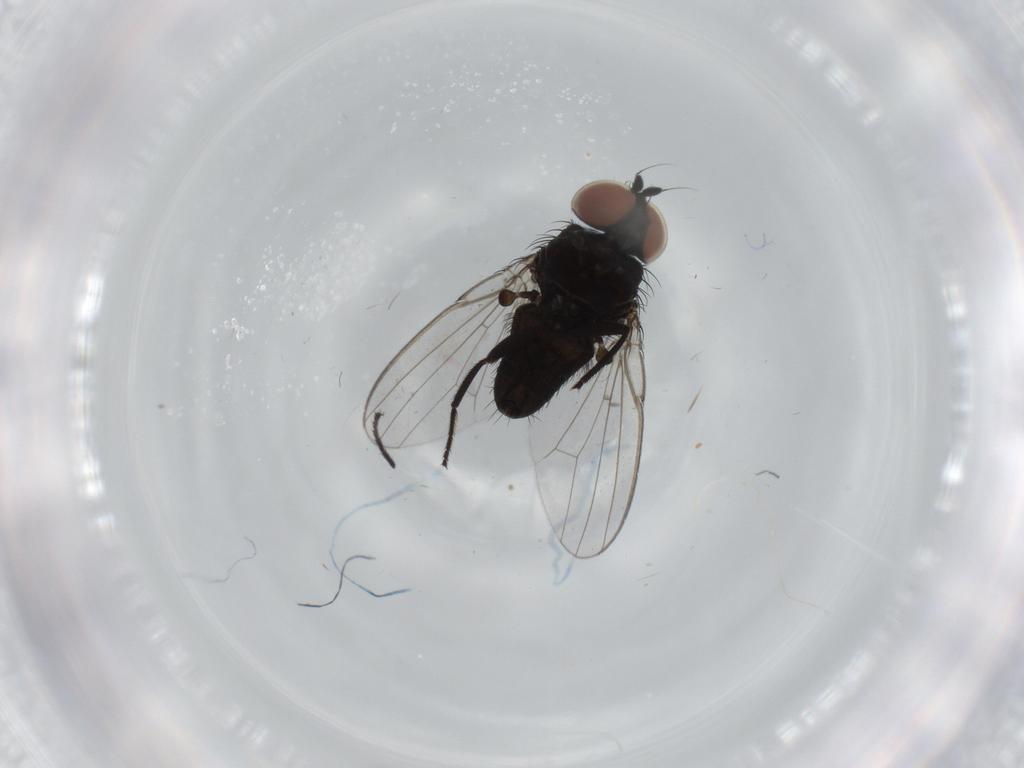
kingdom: Animalia
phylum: Arthropoda
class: Insecta
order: Diptera
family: Milichiidae
